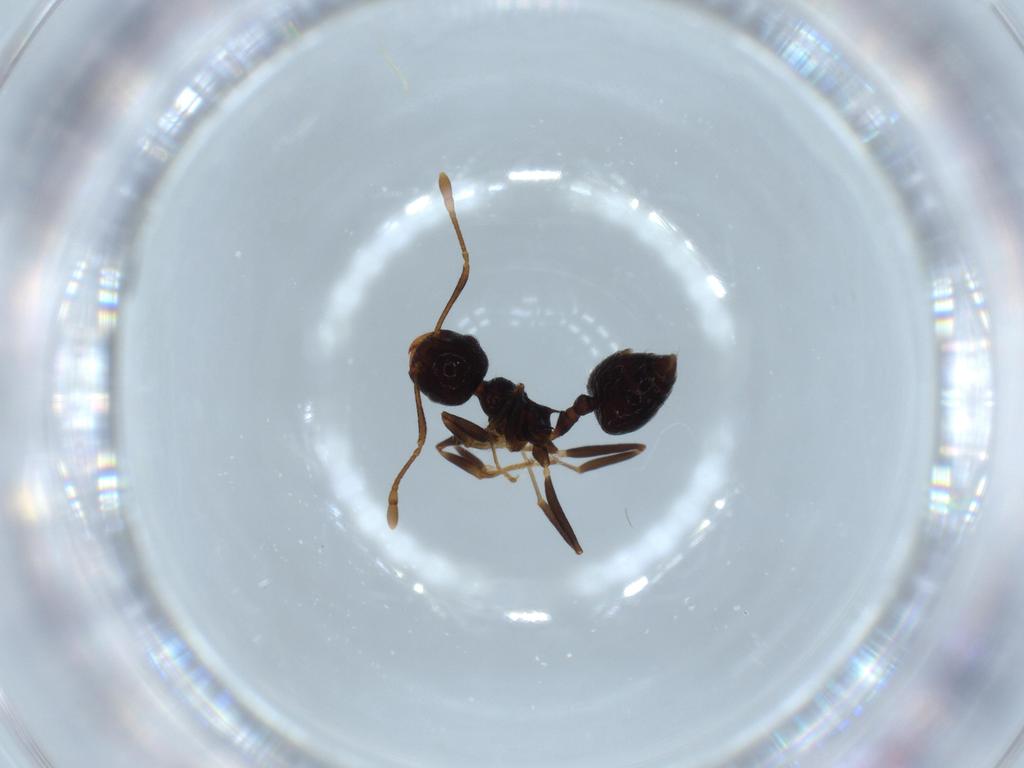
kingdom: Animalia
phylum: Arthropoda
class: Insecta
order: Hymenoptera
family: Formicidae
